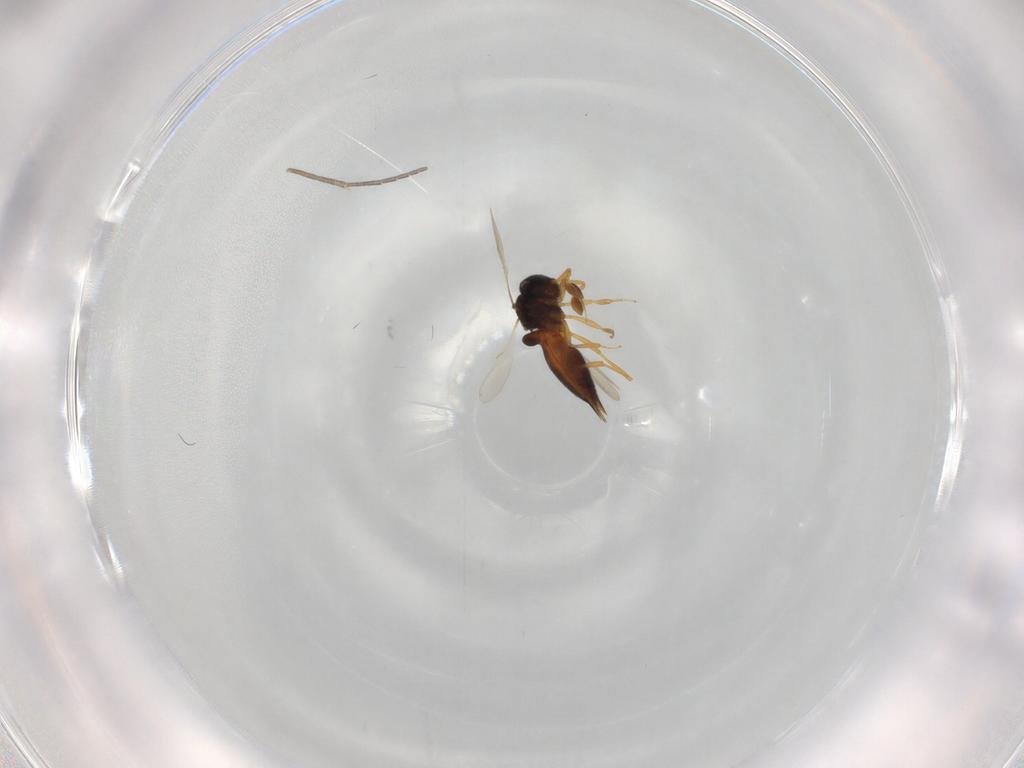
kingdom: Animalia
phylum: Arthropoda
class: Insecta
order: Hymenoptera
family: Scelionidae
